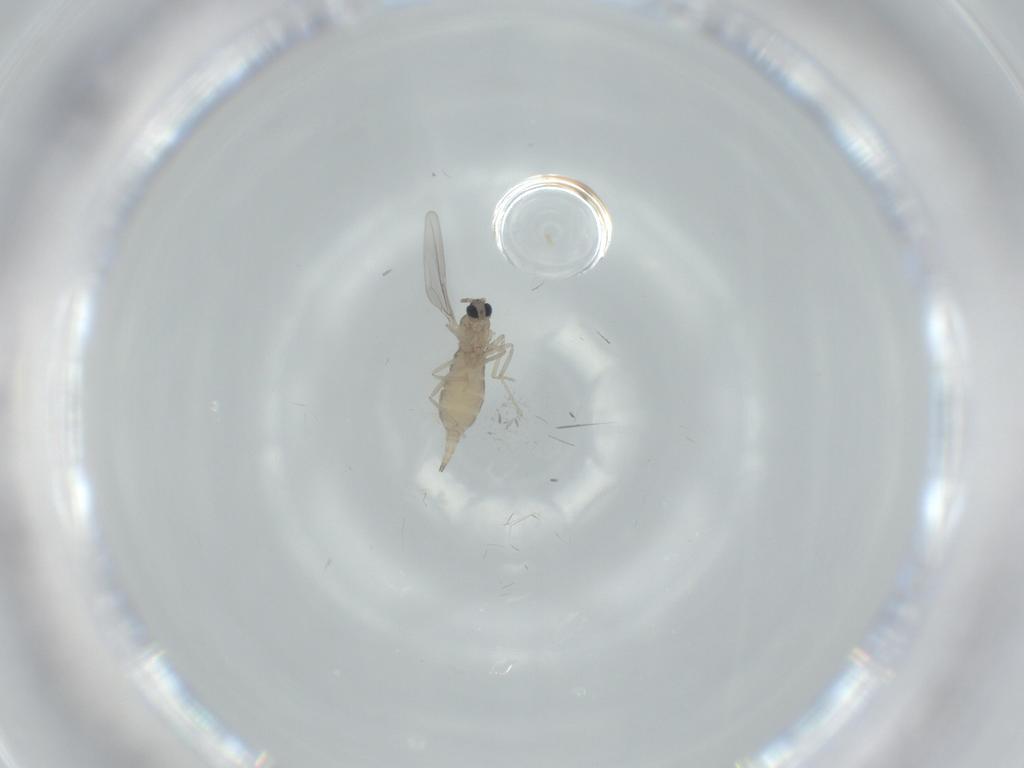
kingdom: Animalia
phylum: Arthropoda
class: Insecta
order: Diptera
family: Cecidomyiidae
